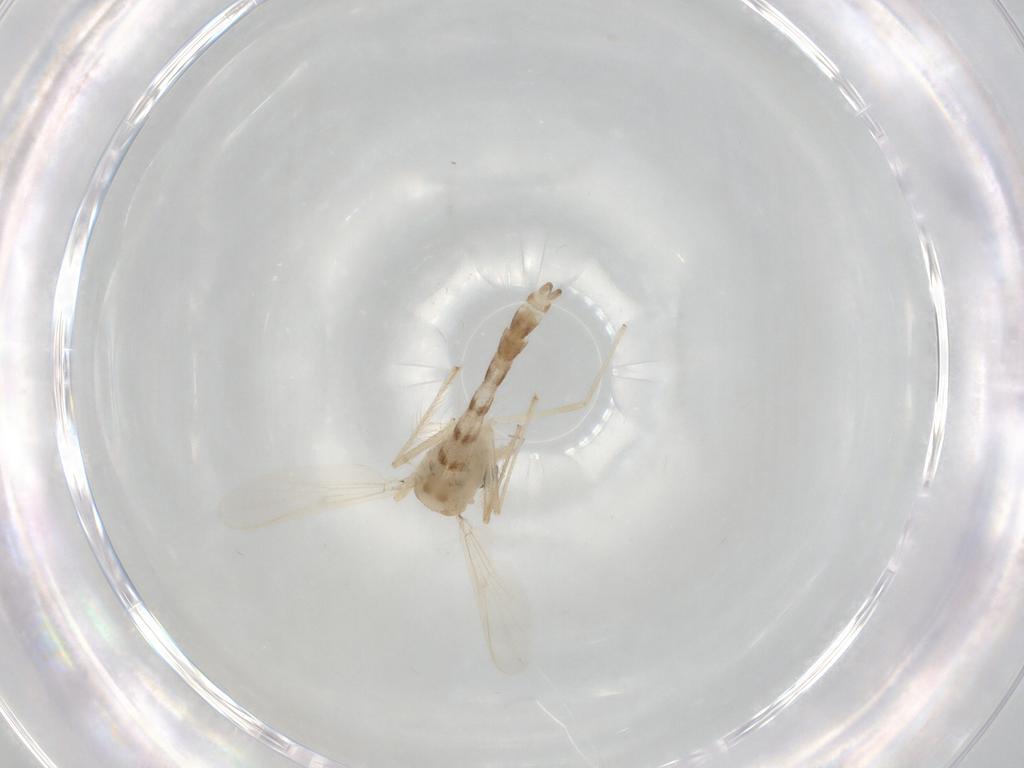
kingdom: Animalia
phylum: Arthropoda
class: Insecta
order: Diptera
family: Chironomidae
